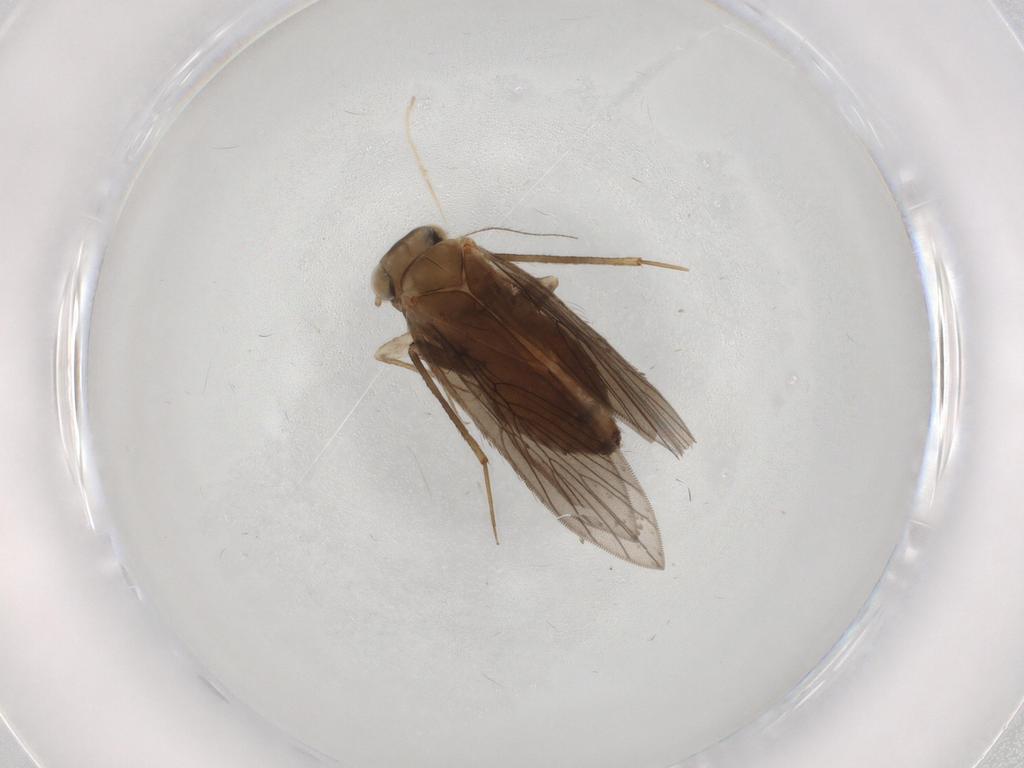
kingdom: Animalia
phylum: Arthropoda
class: Insecta
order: Psocodea
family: Lepidopsocidae
